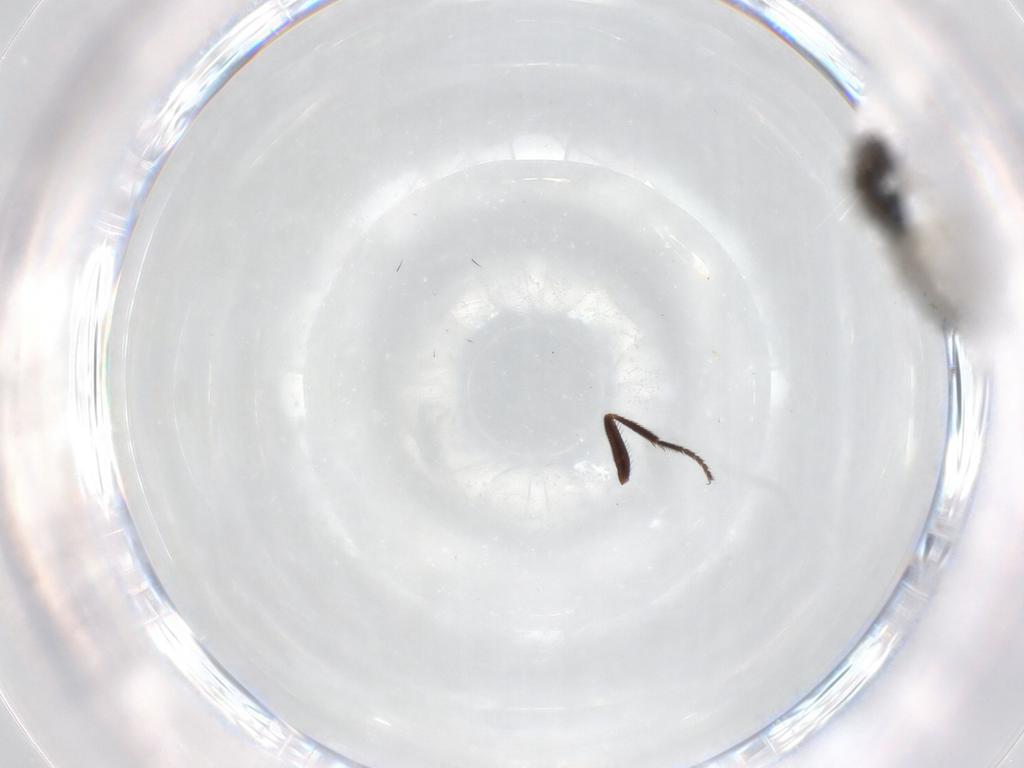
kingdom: Animalia
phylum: Arthropoda
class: Insecta
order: Diptera
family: Dolichopodidae
